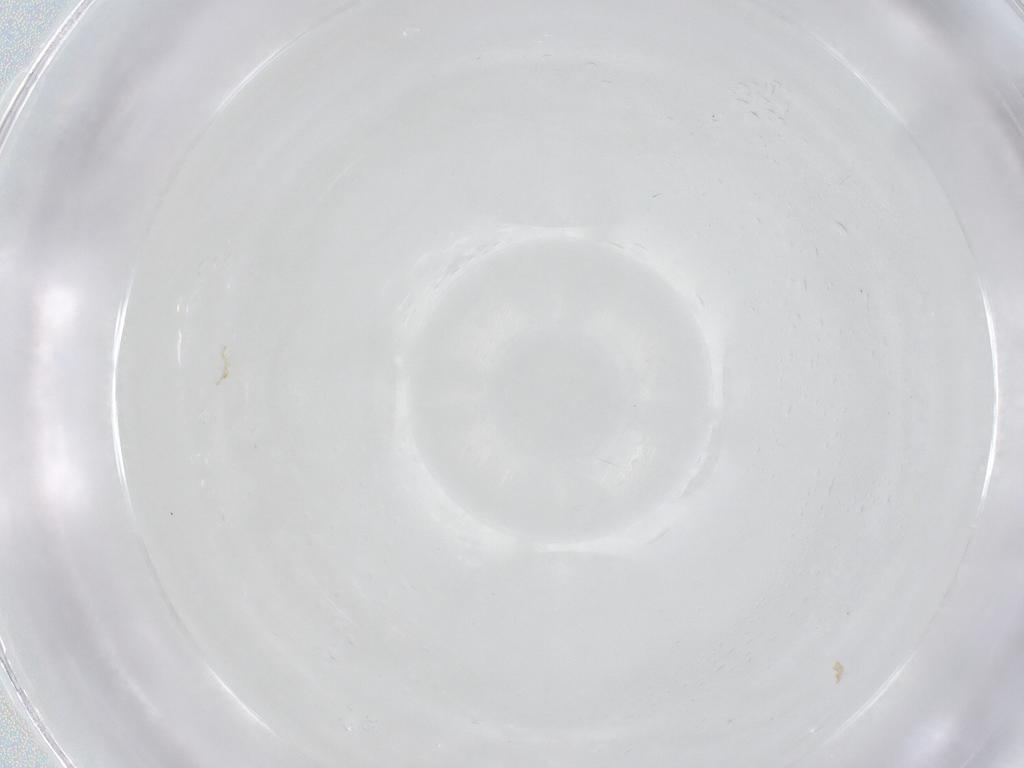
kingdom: Animalia
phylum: Arthropoda
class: Insecta
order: Diptera
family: Cecidomyiidae
